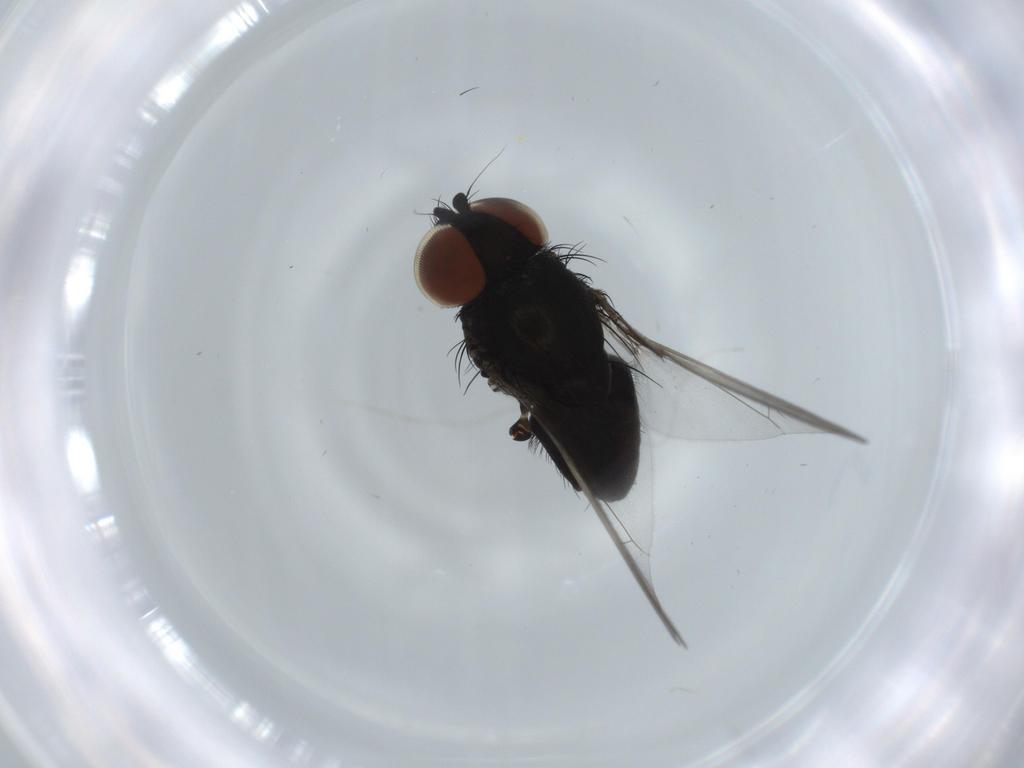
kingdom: Animalia
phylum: Arthropoda
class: Insecta
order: Diptera
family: Milichiidae
